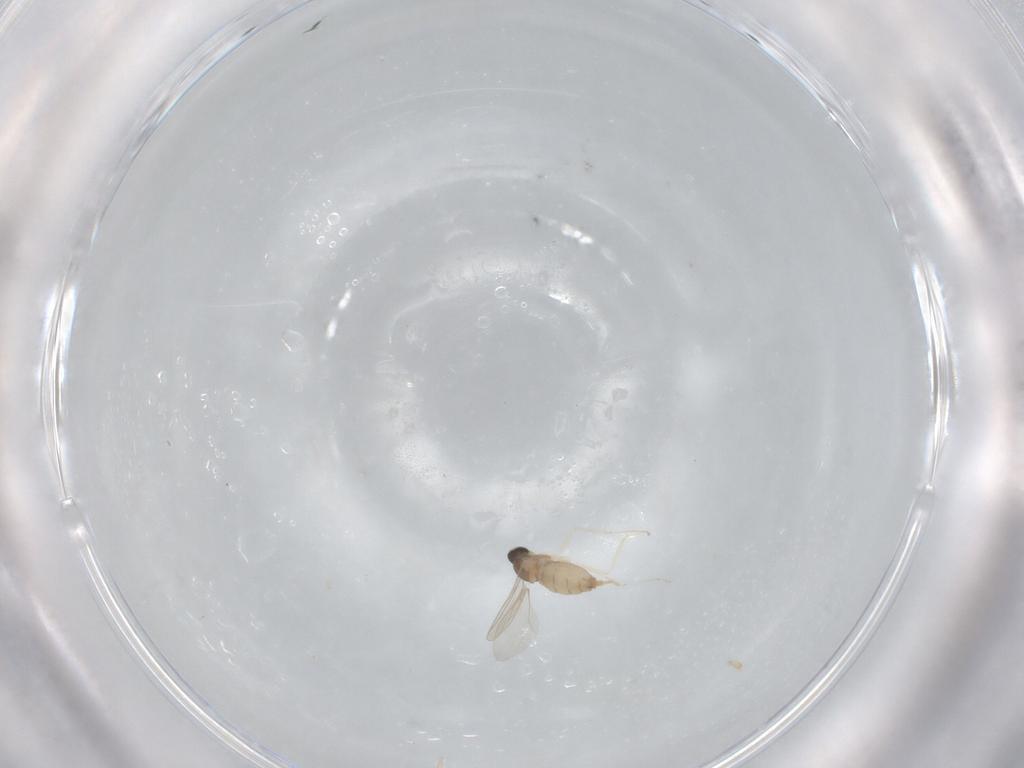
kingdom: Animalia
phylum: Arthropoda
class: Insecta
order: Diptera
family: Cecidomyiidae
